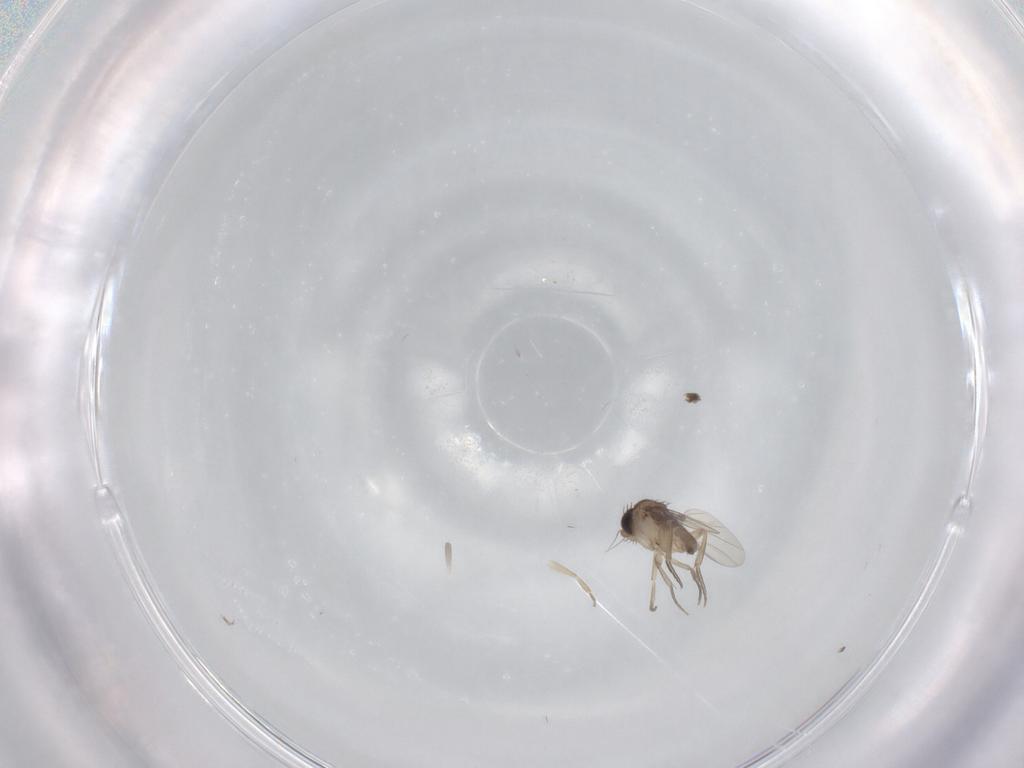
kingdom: Animalia
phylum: Arthropoda
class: Insecta
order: Diptera
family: Phoridae
